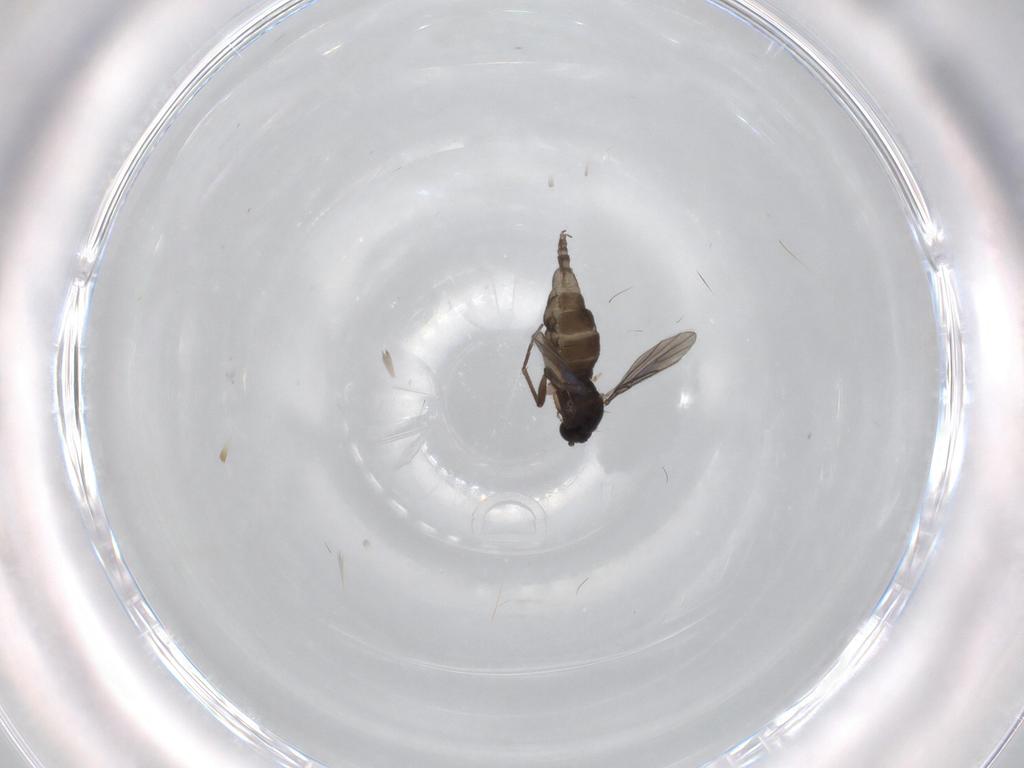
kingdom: Animalia
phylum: Arthropoda
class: Insecta
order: Diptera
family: Sciaridae
